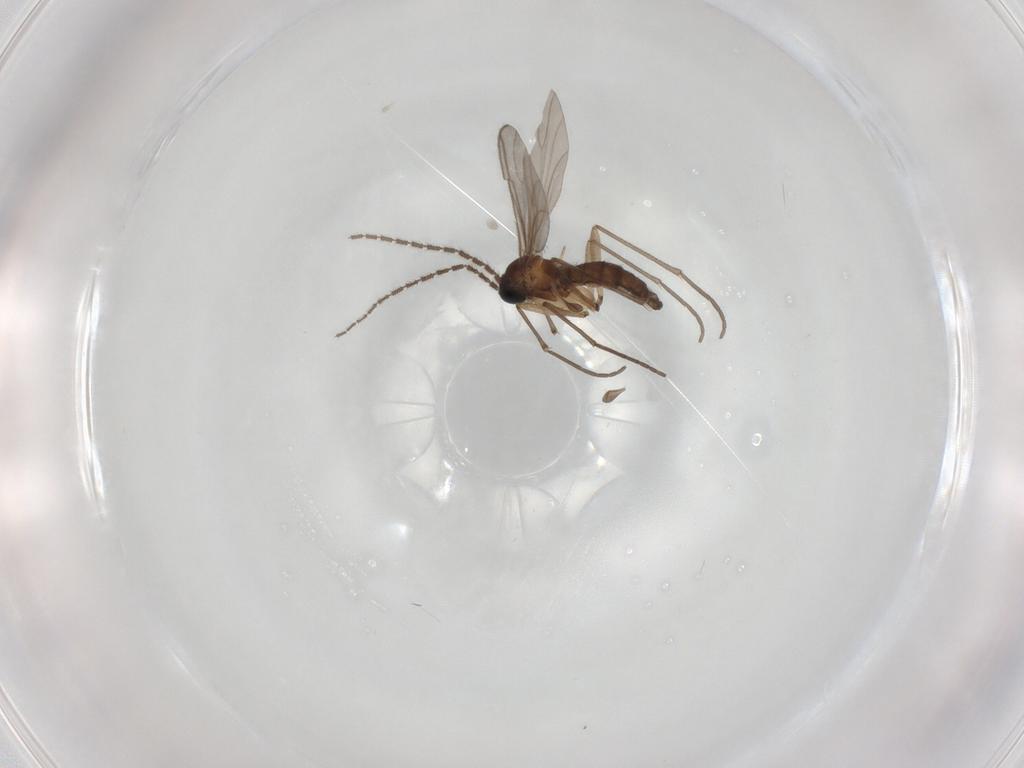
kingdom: Animalia
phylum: Arthropoda
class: Insecta
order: Diptera
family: Sciaridae
